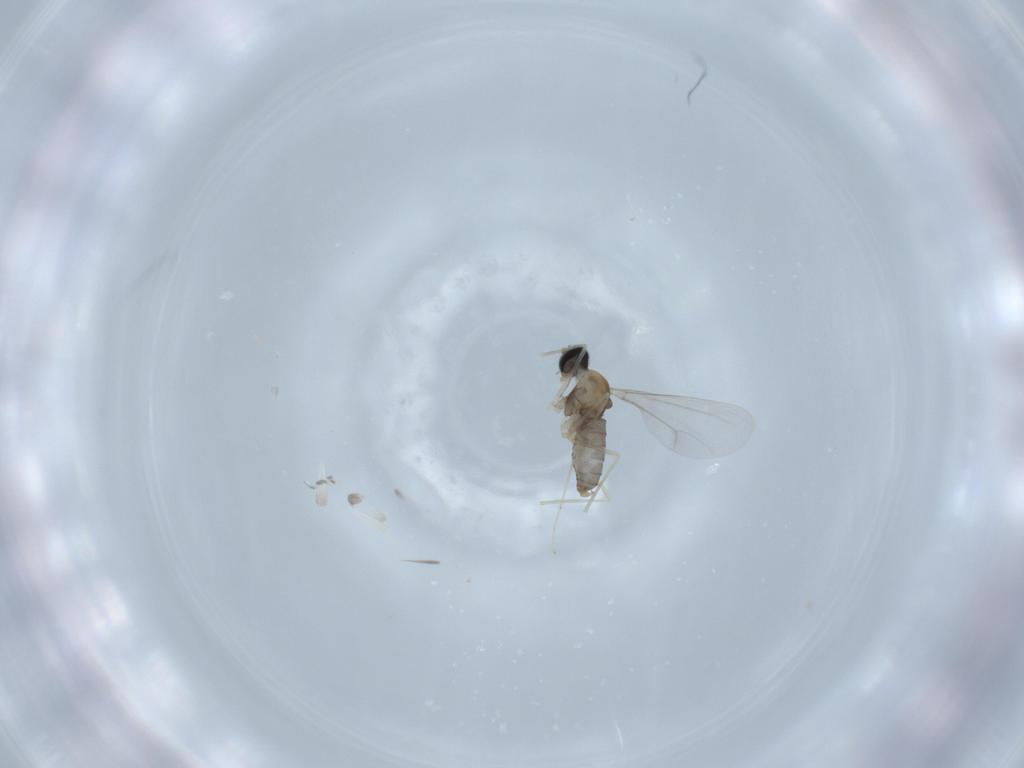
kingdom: Animalia
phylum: Arthropoda
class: Insecta
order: Diptera
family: Cecidomyiidae
